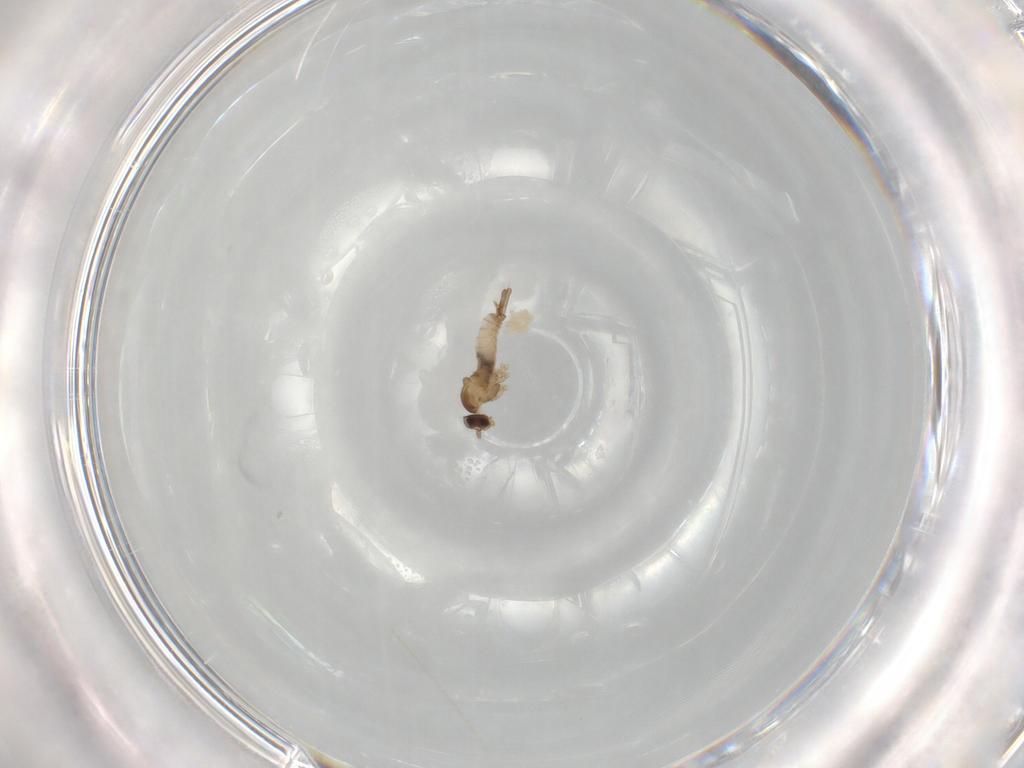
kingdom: Animalia
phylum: Arthropoda
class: Insecta
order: Diptera
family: Cecidomyiidae
